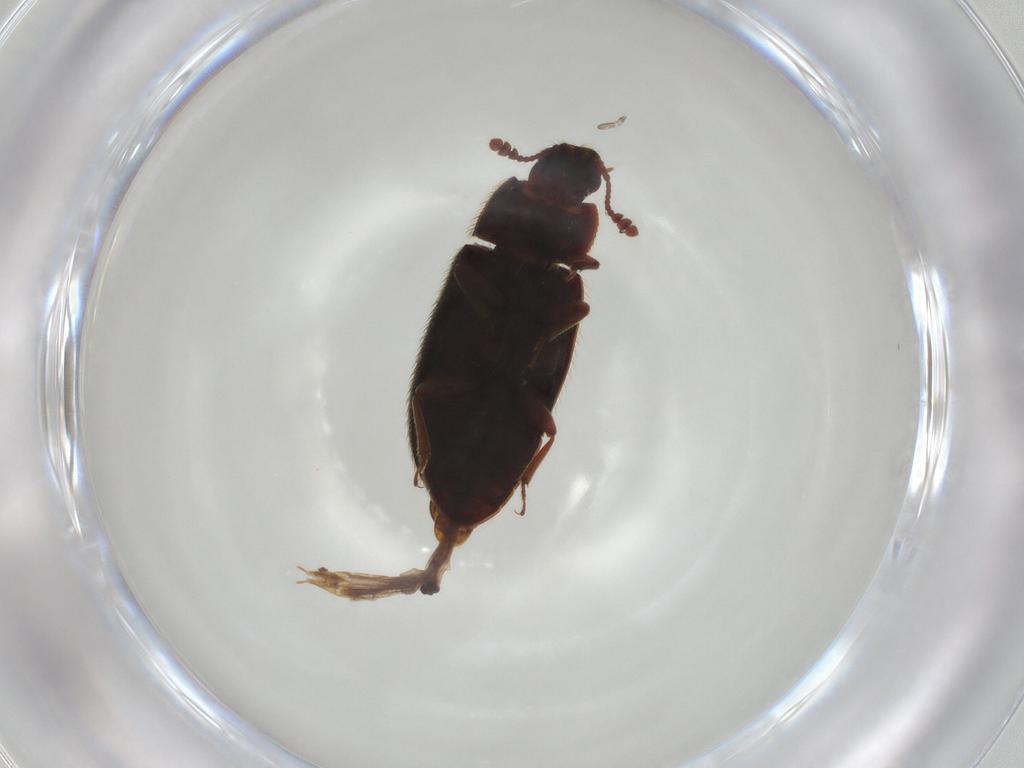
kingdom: Animalia
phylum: Arthropoda
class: Insecta
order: Coleoptera
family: Biphyllidae
